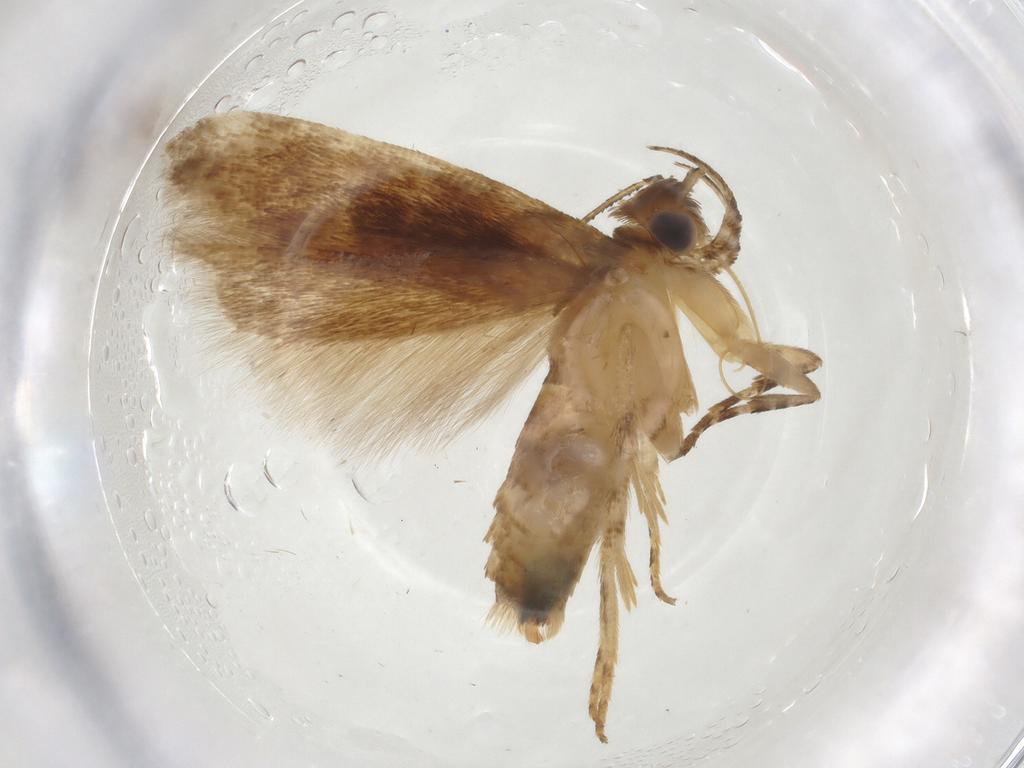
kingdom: Animalia
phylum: Arthropoda
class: Insecta
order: Lepidoptera
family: Gelechiidae
